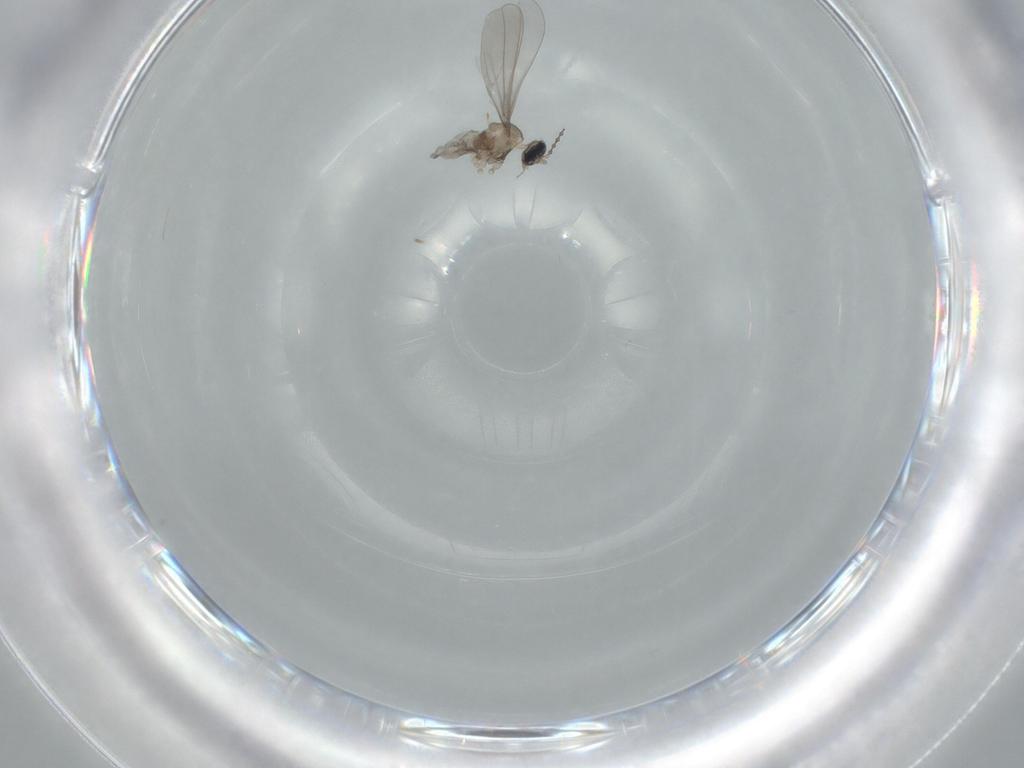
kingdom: Animalia
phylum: Arthropoda
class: Insecta
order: Diptera
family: Cecidomyiidae
